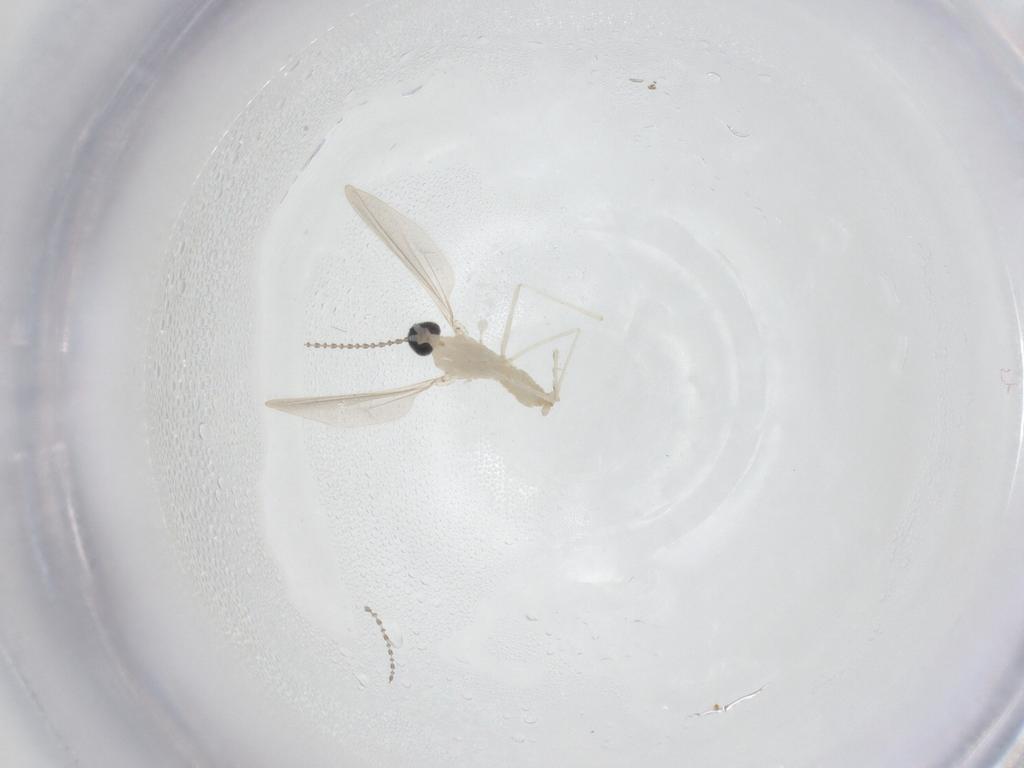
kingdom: Animalia
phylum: Arthropoda
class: Insecta
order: Diptera
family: Cecidomyiidae
